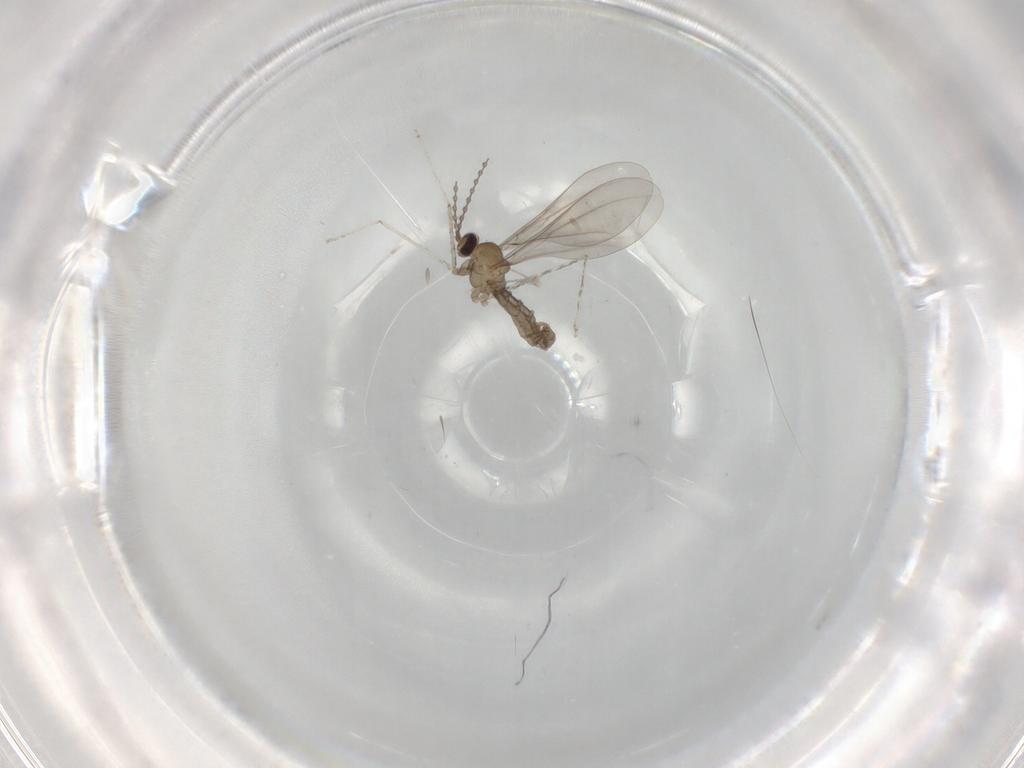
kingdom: Animalia
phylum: Arthropoda
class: Insecta
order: Diptera
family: Cecidomyiidae
